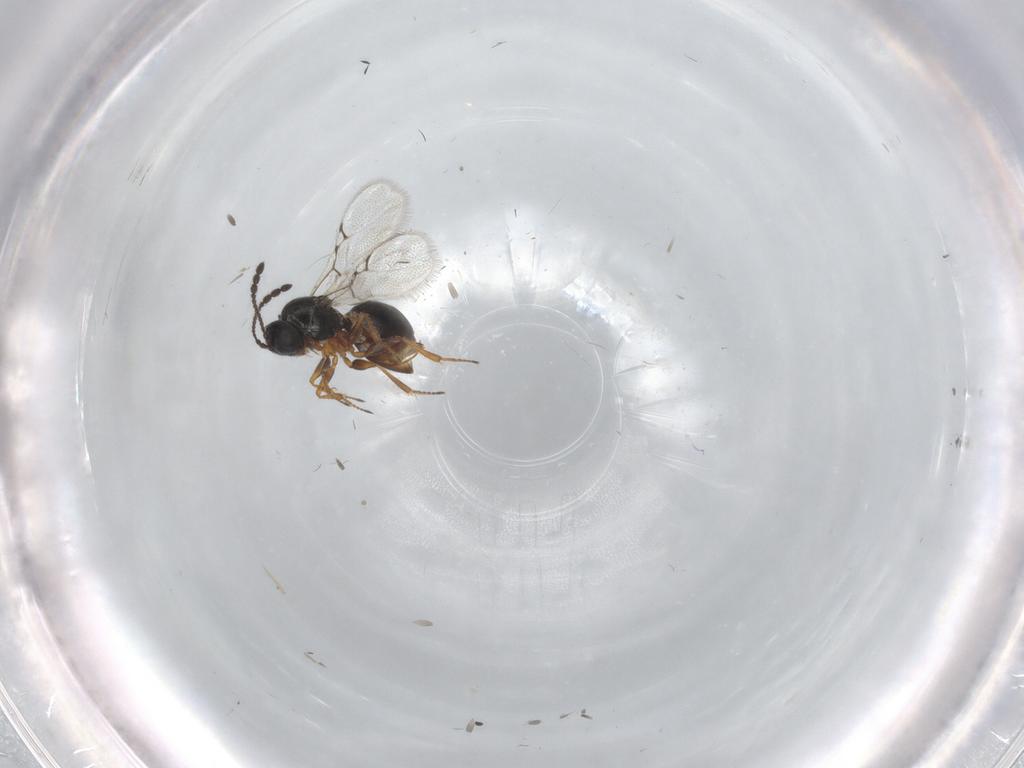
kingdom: Animalia
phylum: Arthropoda
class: Insecta
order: Hymenoptera
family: Figitidae
